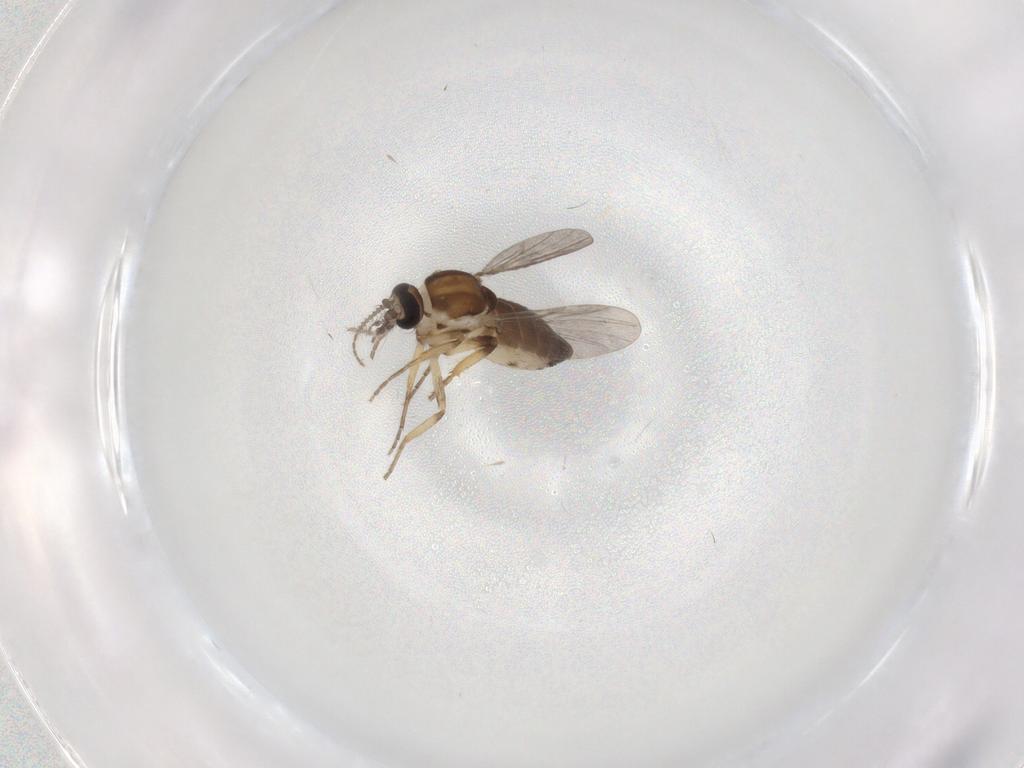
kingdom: Animalia
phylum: Arthropoda
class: Insecta
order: Diptera
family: Ceratopogonidae
